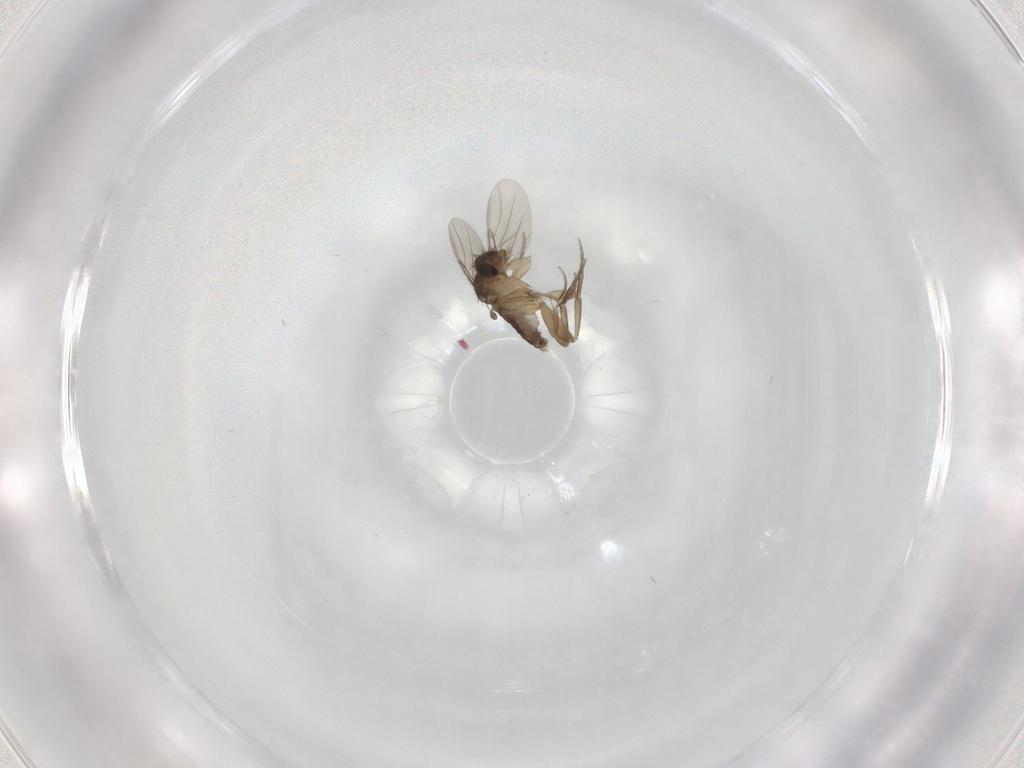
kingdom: Animalia
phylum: Arthropoda
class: Insecta
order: Diptera
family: Phoridae
